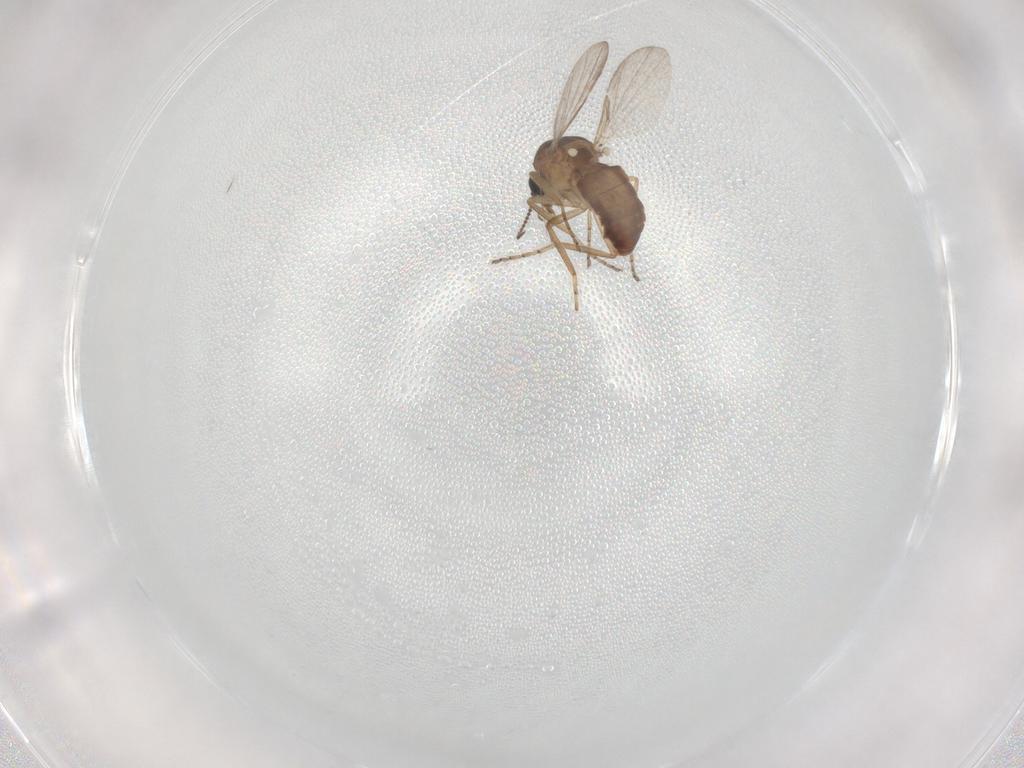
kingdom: Animalia
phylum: Arthropoda
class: Insecta
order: Diptera
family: Ceratopogonidae
